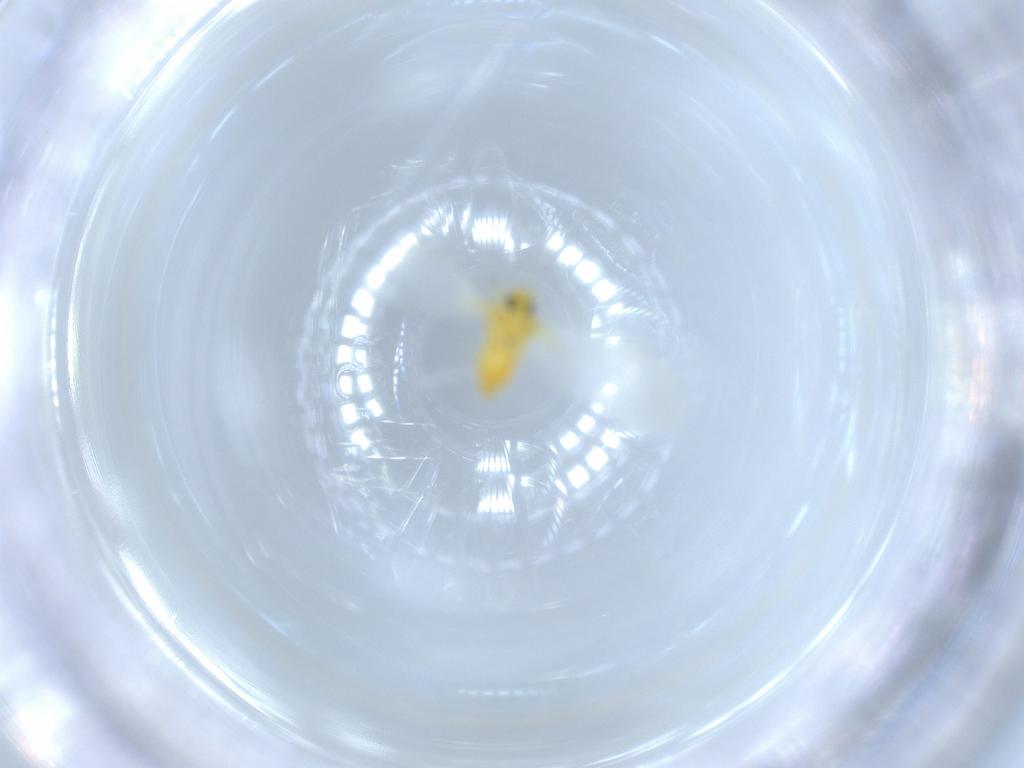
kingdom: Animalia
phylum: Arthropoda
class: Insecta
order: Hemiptera
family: Aleyrodidae
